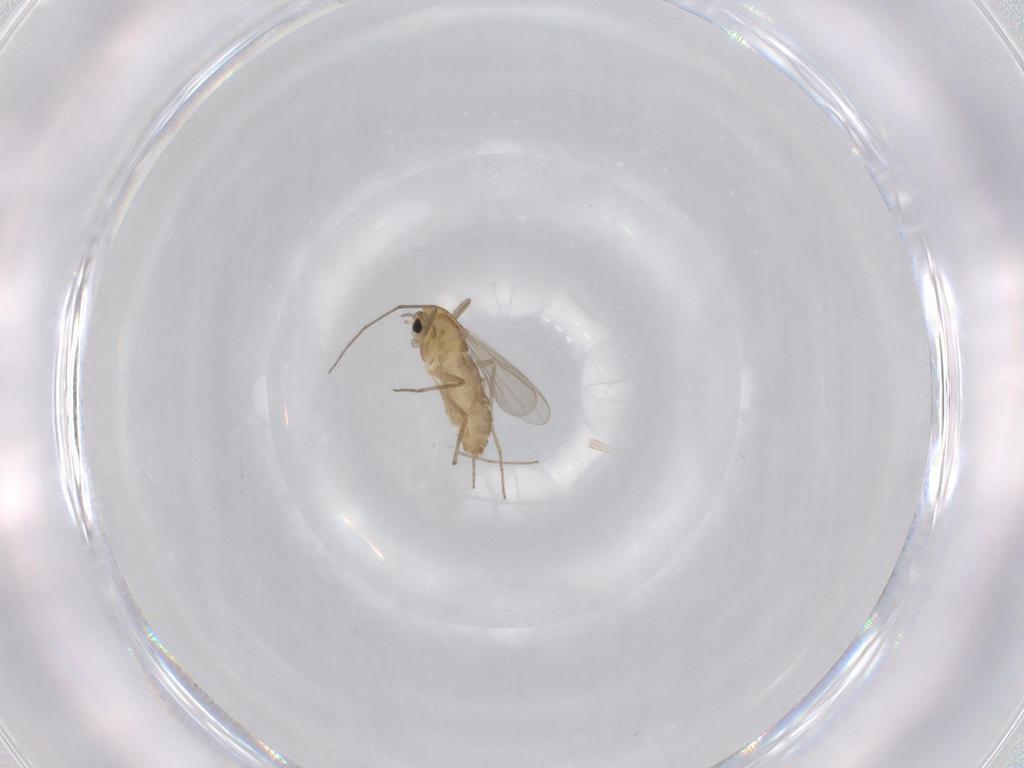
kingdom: Animalia
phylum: Arthropoda
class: Insecta
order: Diptera
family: Chironomidae
